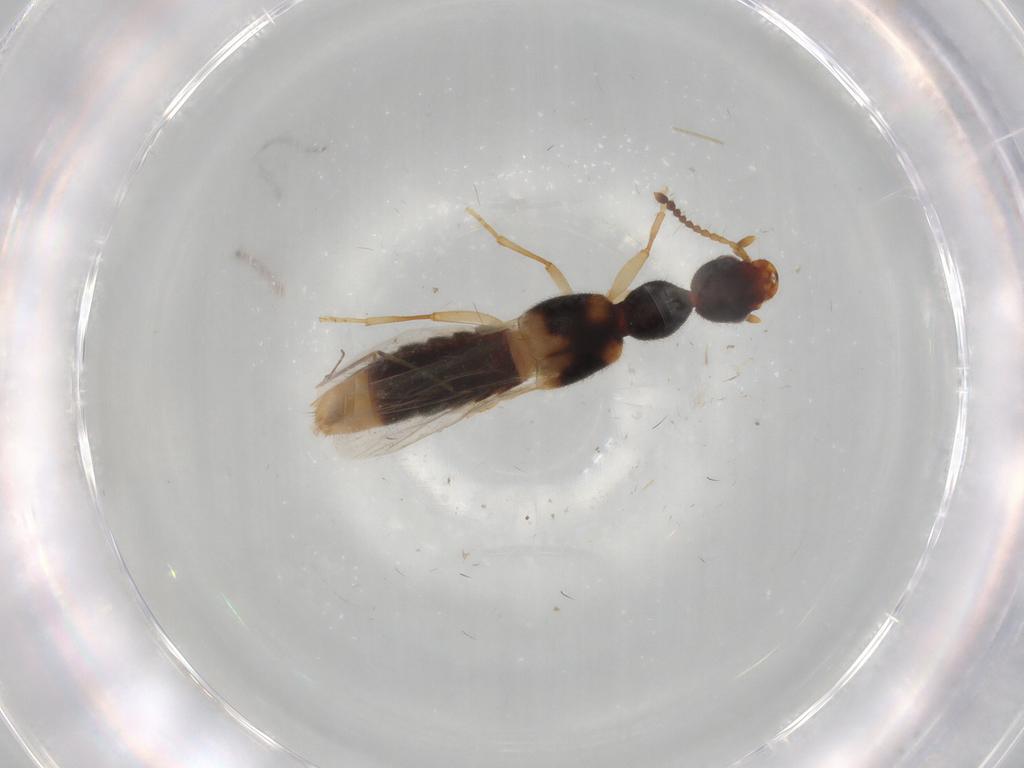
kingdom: Animalia
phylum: Arthropoda
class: Insecta
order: Coleoptera
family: Staphylinidae
